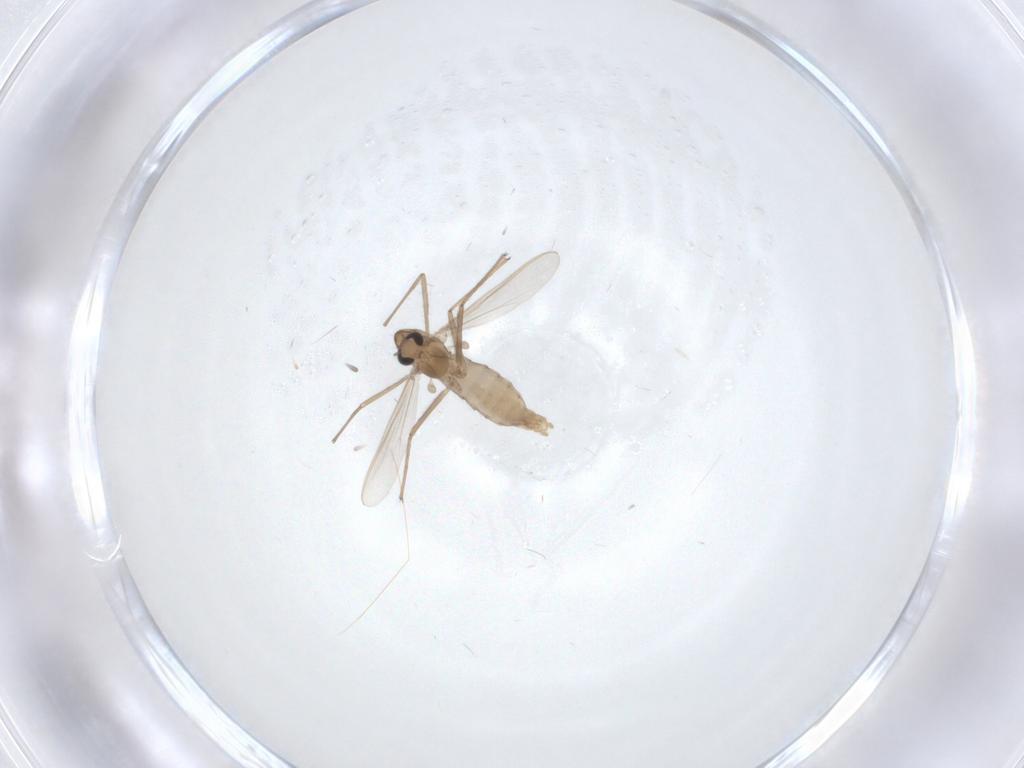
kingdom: Animalia
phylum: Arthropoda
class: Insecta
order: Diptera
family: Chironomidae
